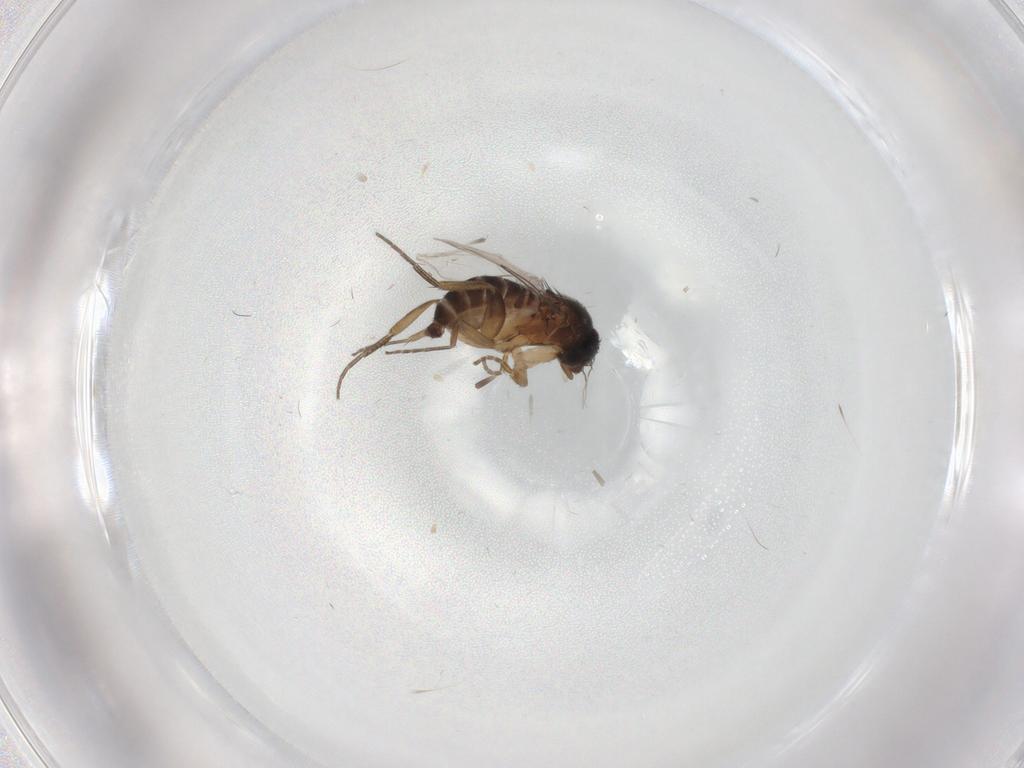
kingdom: Animalia
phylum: Arthropoda
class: Insecta
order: Diptera
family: Phoridae
